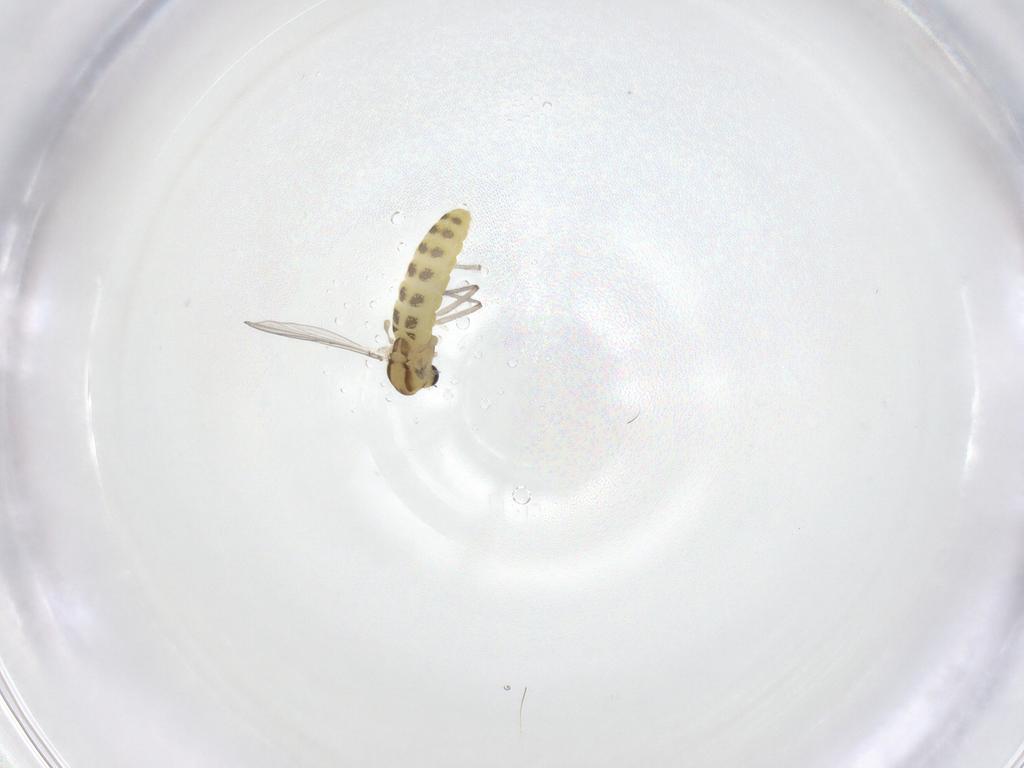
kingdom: Animalia
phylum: Arthropoda
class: Insecta
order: Diptera
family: Chironomidae
